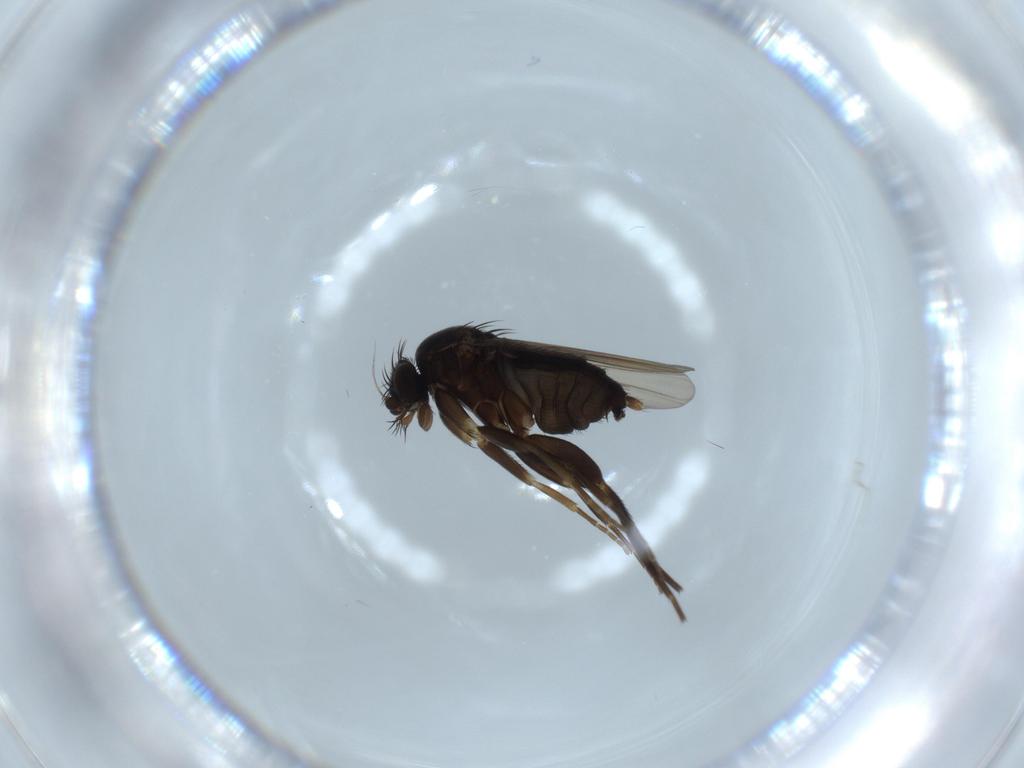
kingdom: Animalia
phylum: Arthropoda
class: Insecta
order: Diptera
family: Phoridae
